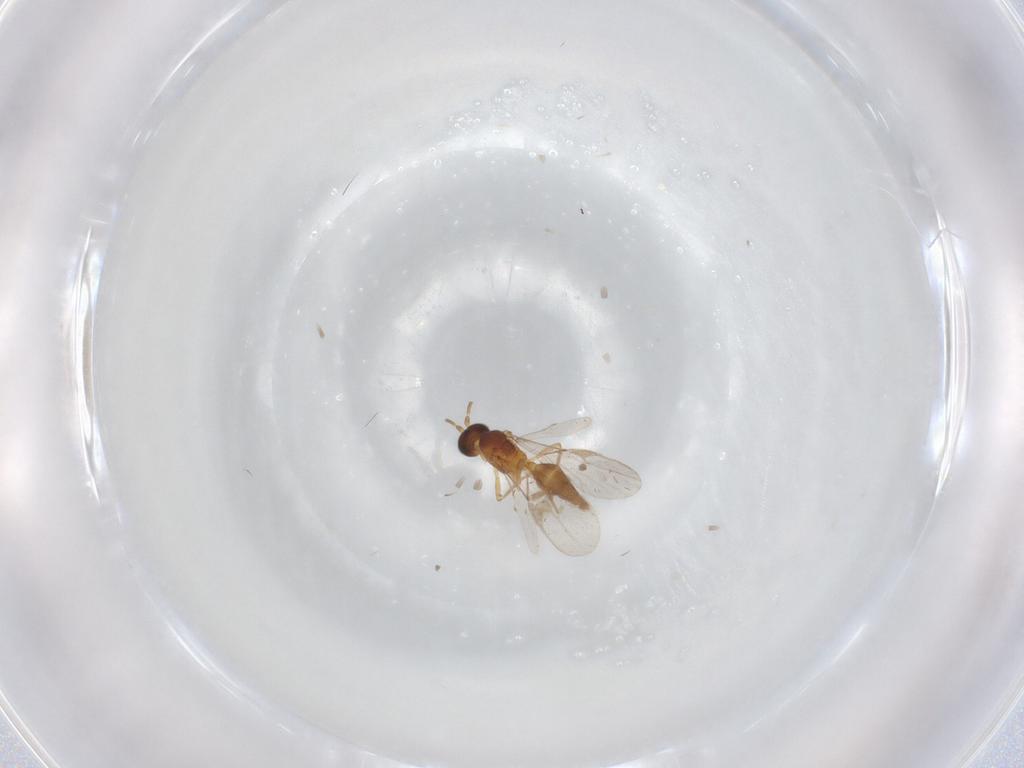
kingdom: Animalia
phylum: Arthropoda
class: Insecta
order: Hymenoptera
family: Braconidae
